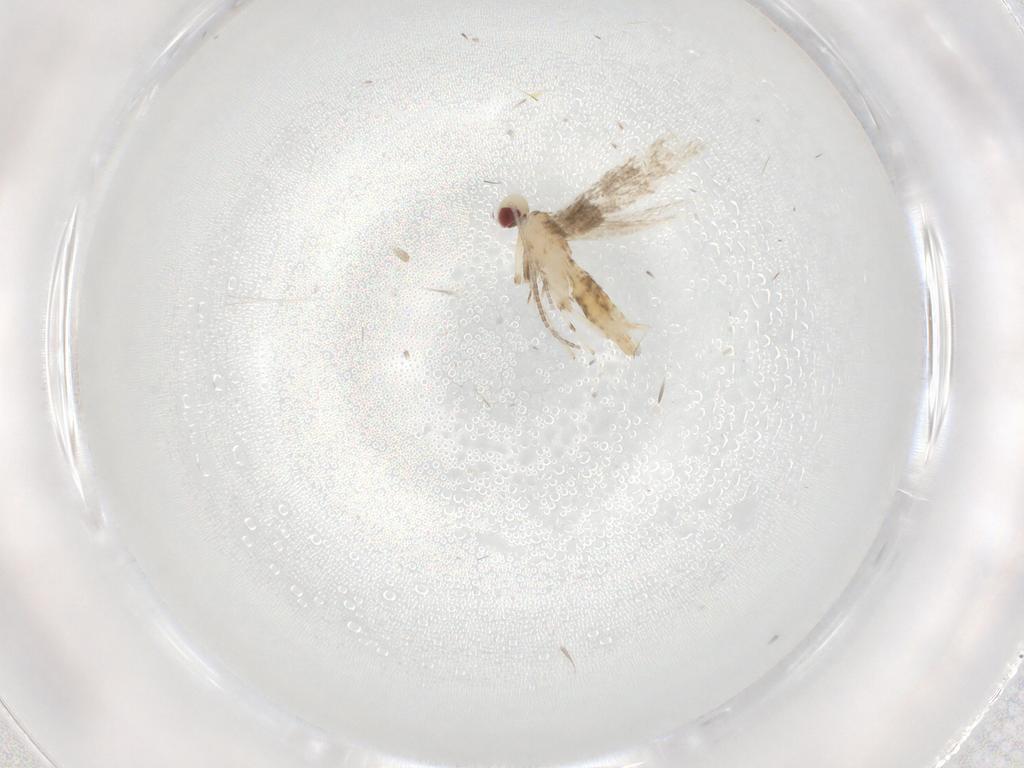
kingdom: Animalia
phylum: Arthropoda
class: Insecta
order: Lepidoptera
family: Gracillariidae
